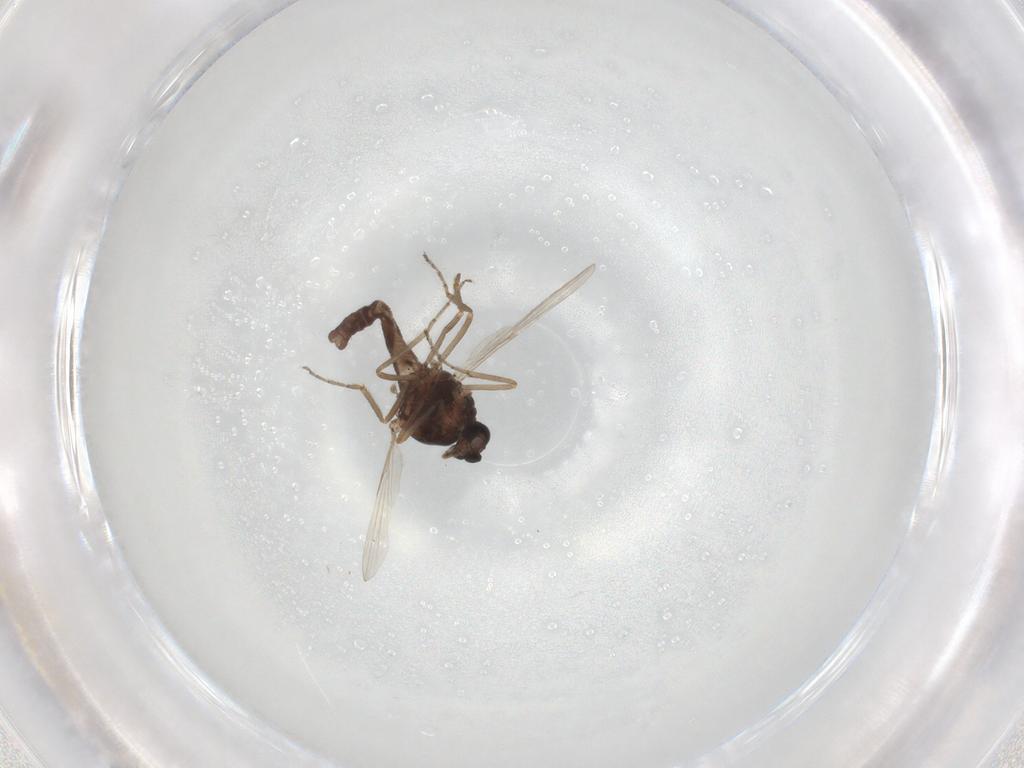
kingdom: Animalia
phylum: Arthropoda
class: Insecta
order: Diptera
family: Ceratopogonidae
